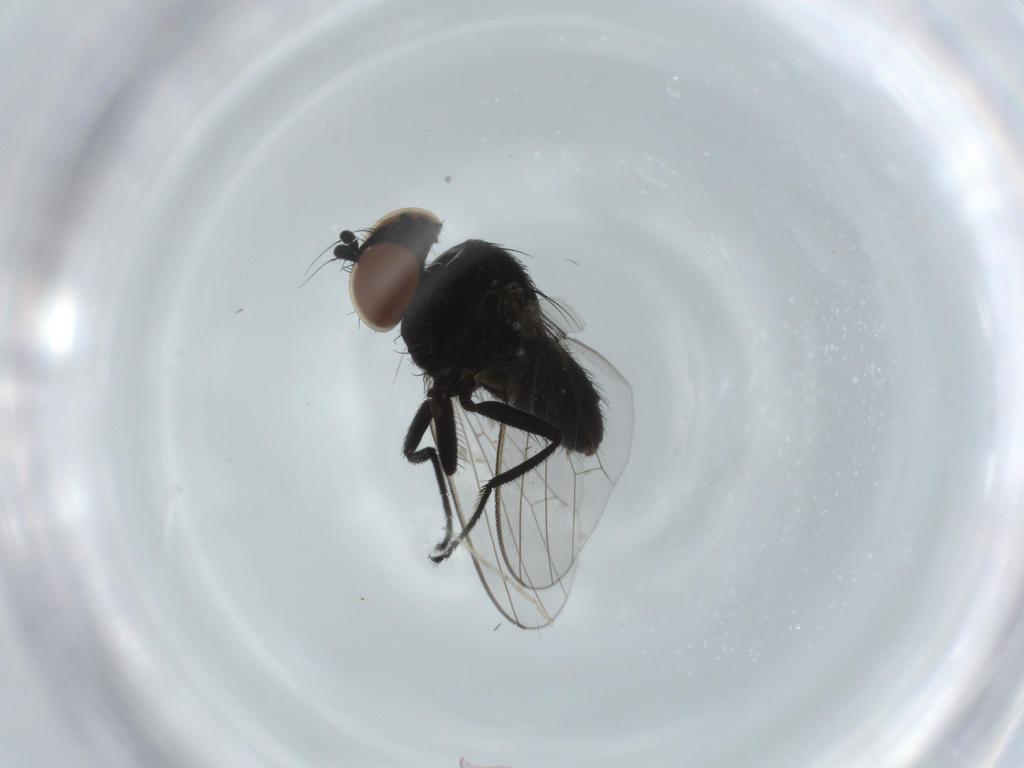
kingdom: Animalia
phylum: Arthropoda
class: Insecta
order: Diptera
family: Milichiidae
